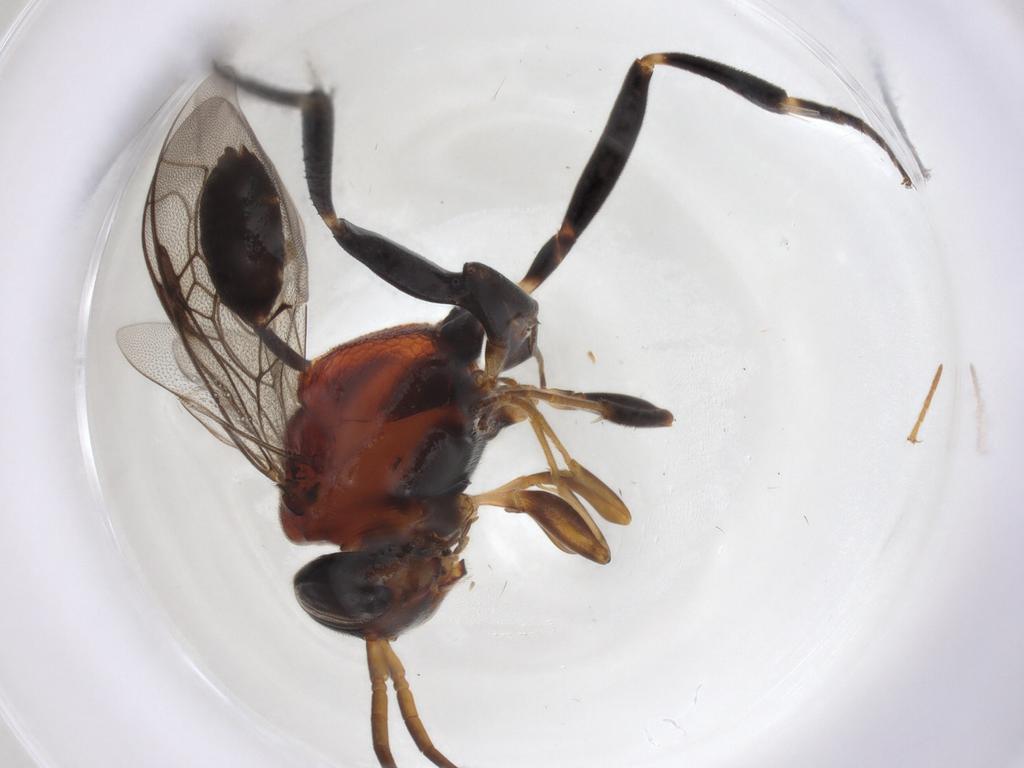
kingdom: Animalia
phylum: Arthropoda
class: Insecta
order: Hymenoptera
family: Evaniidae
